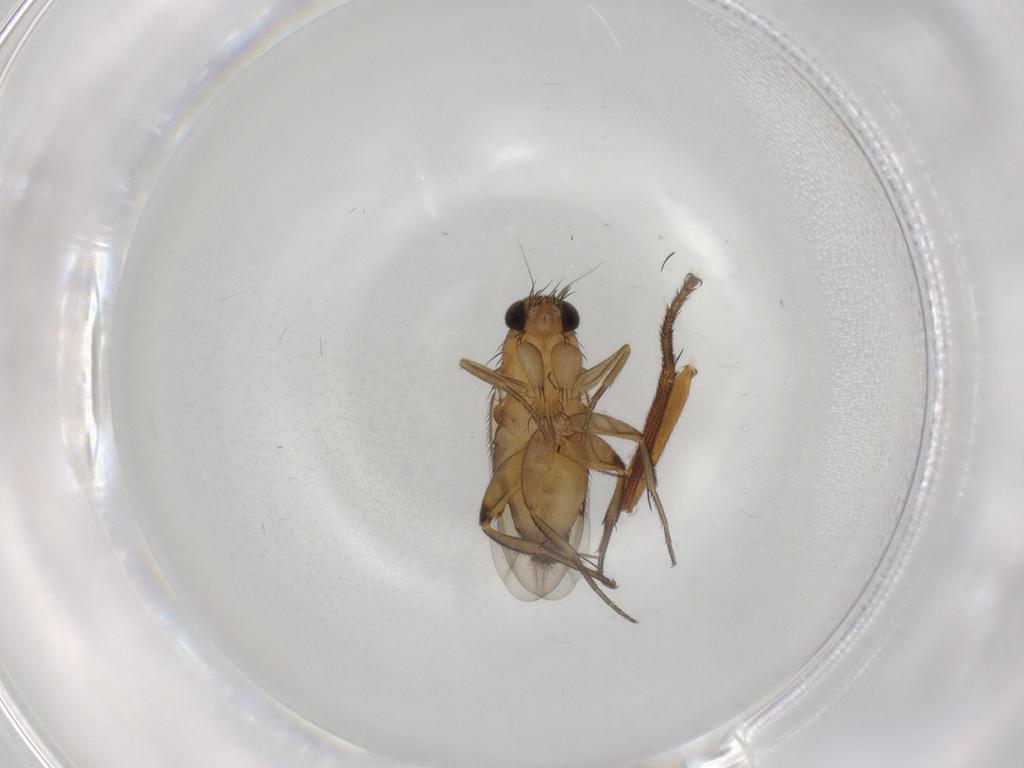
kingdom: Animalia
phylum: Arthropoda
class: Insecta
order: Diptera
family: Phoridae
